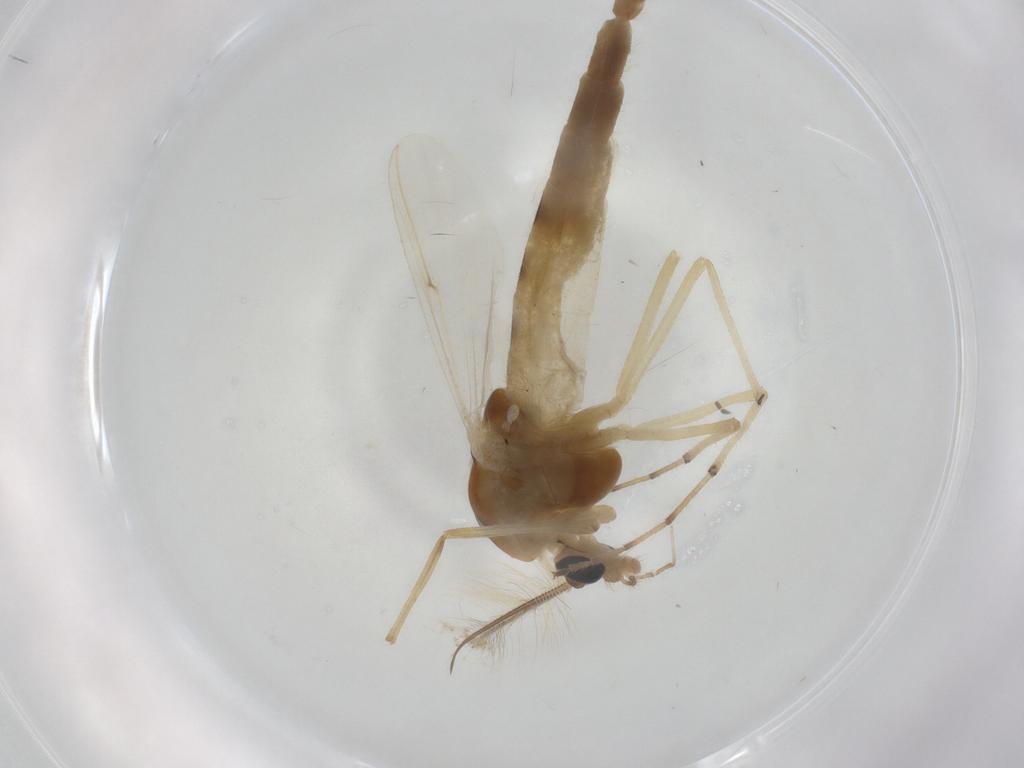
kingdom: Animalia
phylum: Arthropoda
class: Insecta
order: Diptera
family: Chironomidae
